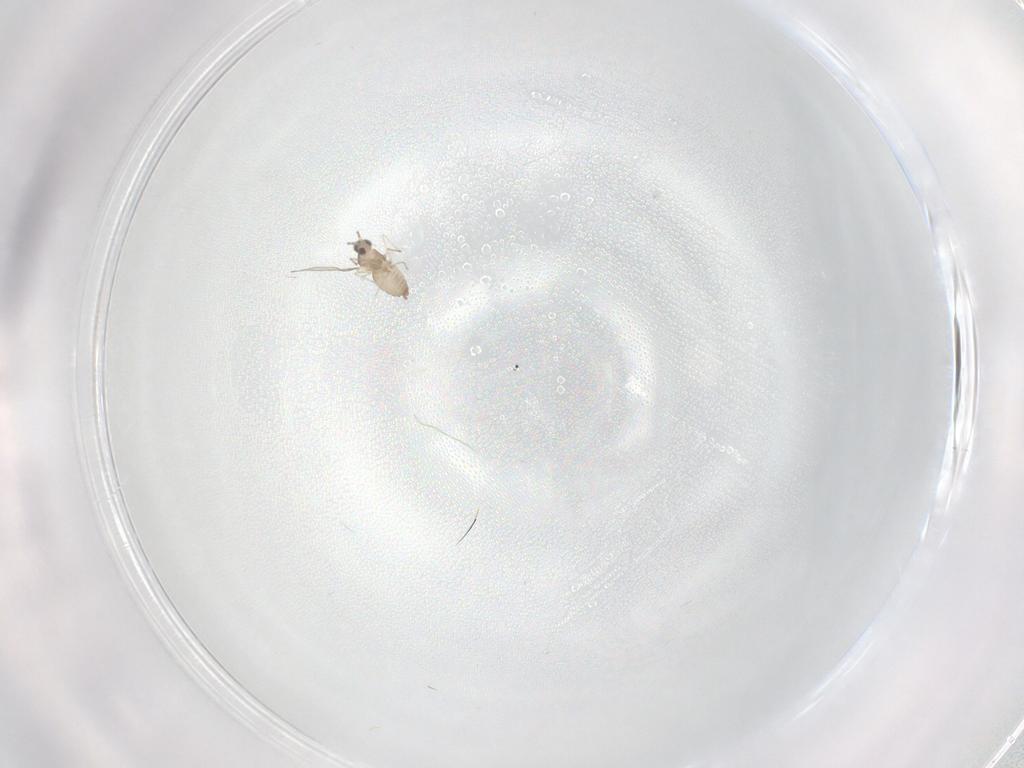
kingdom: Animalia
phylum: Arthropoda
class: Insecta
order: Diptera
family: Cecidomyiidae
